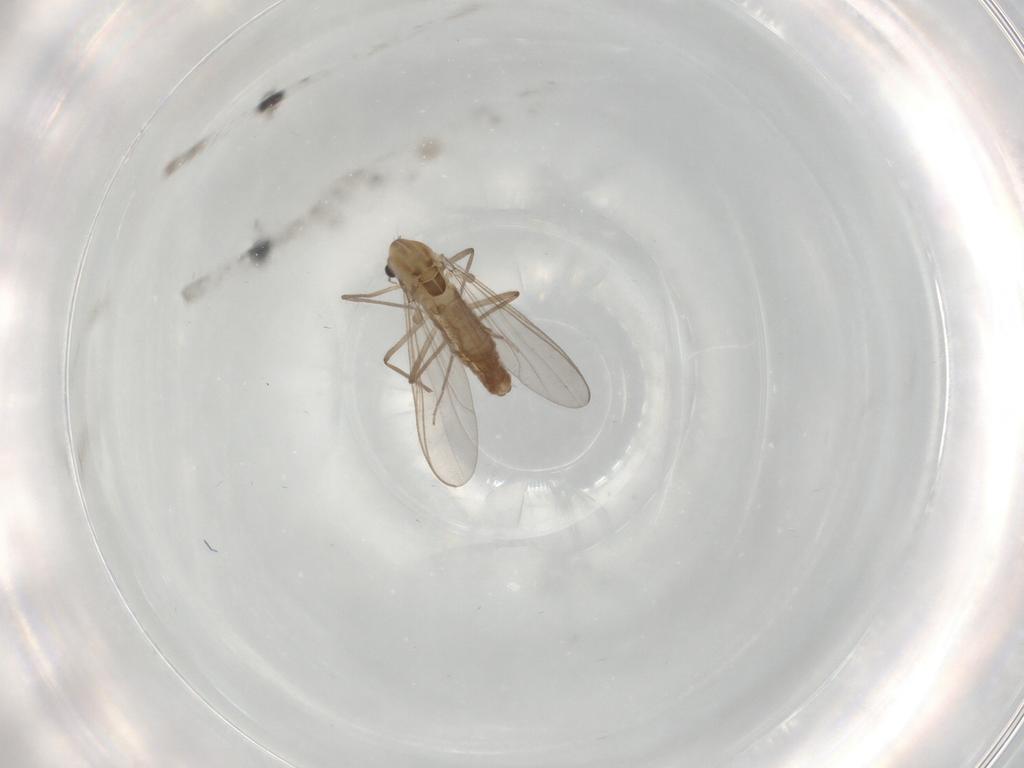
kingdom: Animalia
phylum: Arthropoda
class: Insecta
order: Diptera
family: Chironomidae
